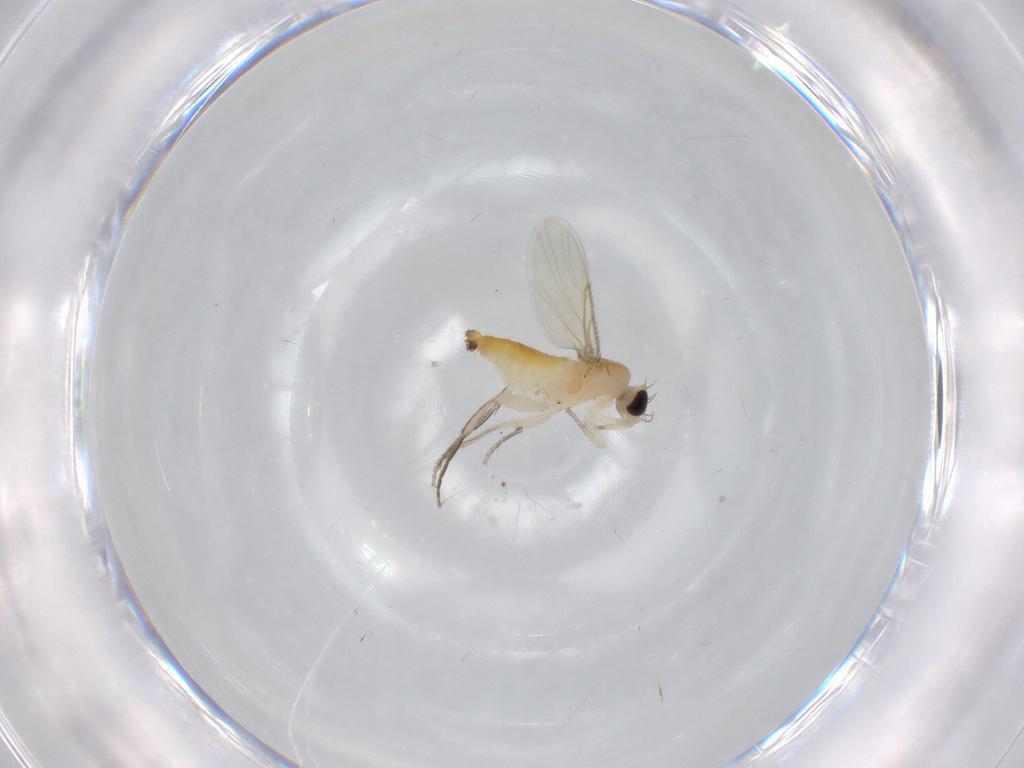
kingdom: Animalia
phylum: Arthropoda
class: Insecta
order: Diptera
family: Phoridae
